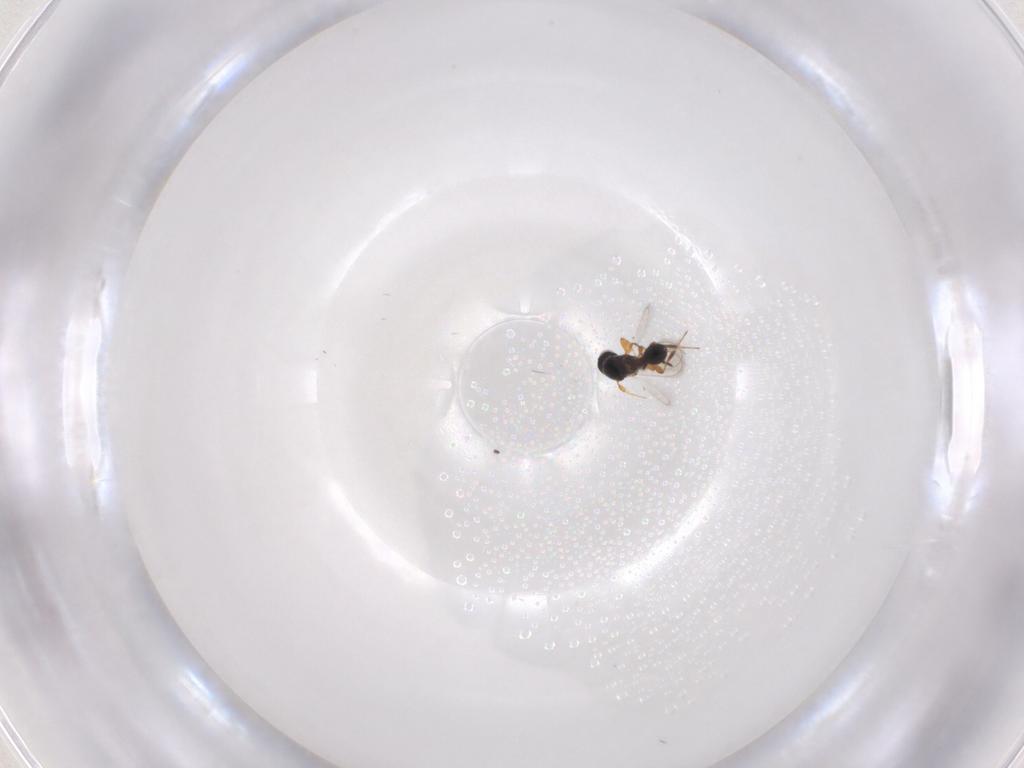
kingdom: Animalia
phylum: Arthropoda
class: Insecta
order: Hymenoptera
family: Platygastridae
